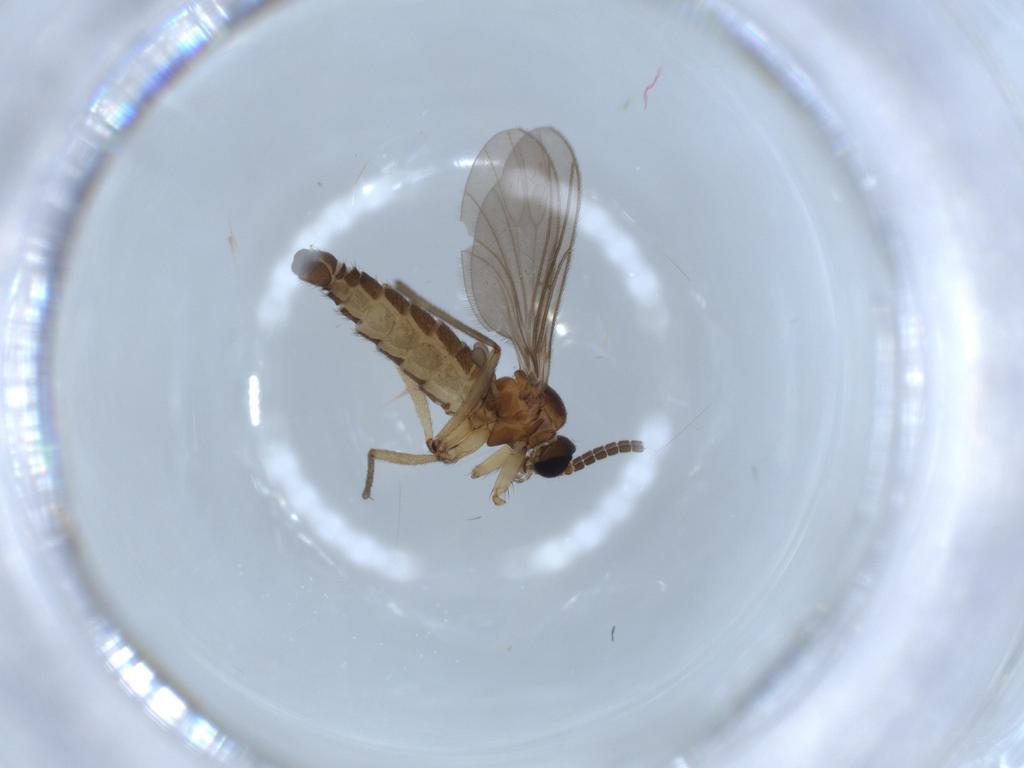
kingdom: Animalia
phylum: Arthropoda
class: Insecta
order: Diptera
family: Sciaridae
